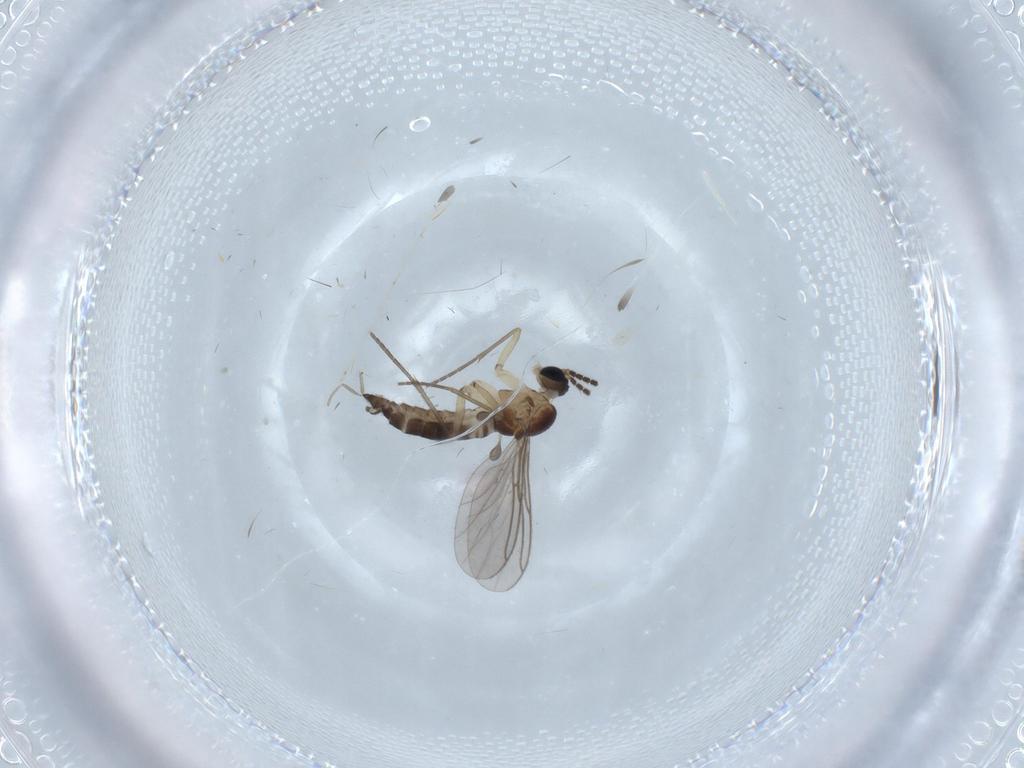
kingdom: Animalia
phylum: Arthropoda
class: Insecta
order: Diptera
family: Sciaridae
